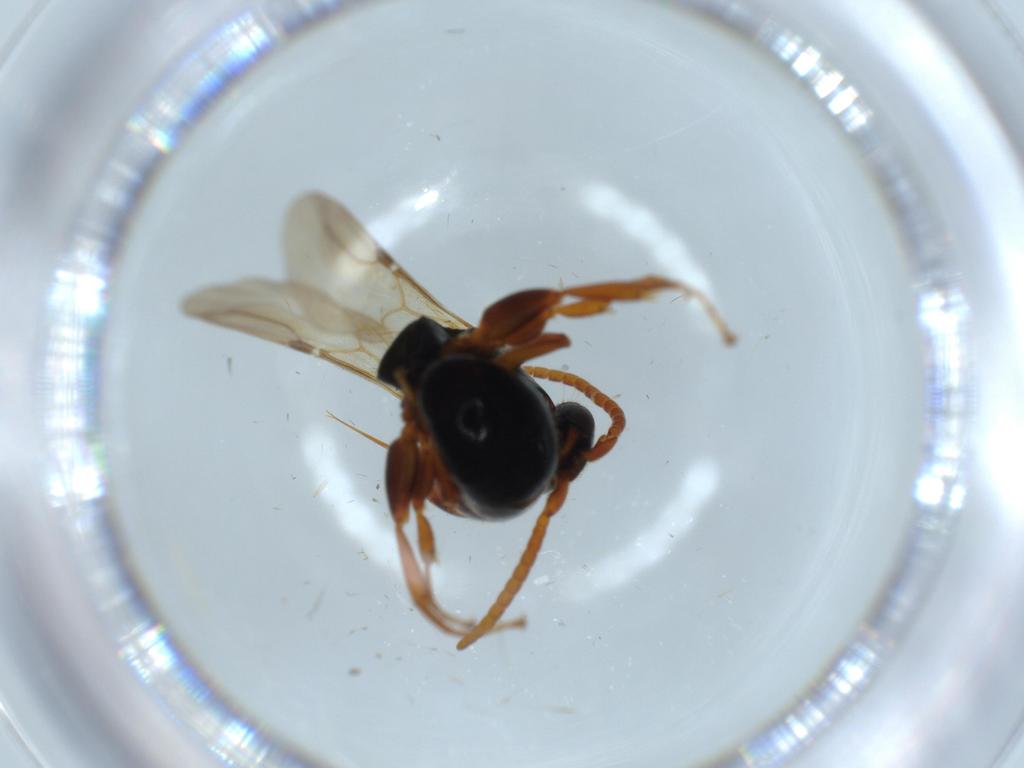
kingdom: Animalia
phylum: Arthropoda
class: Insecta
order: Hymenoptera
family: Bethylidae
